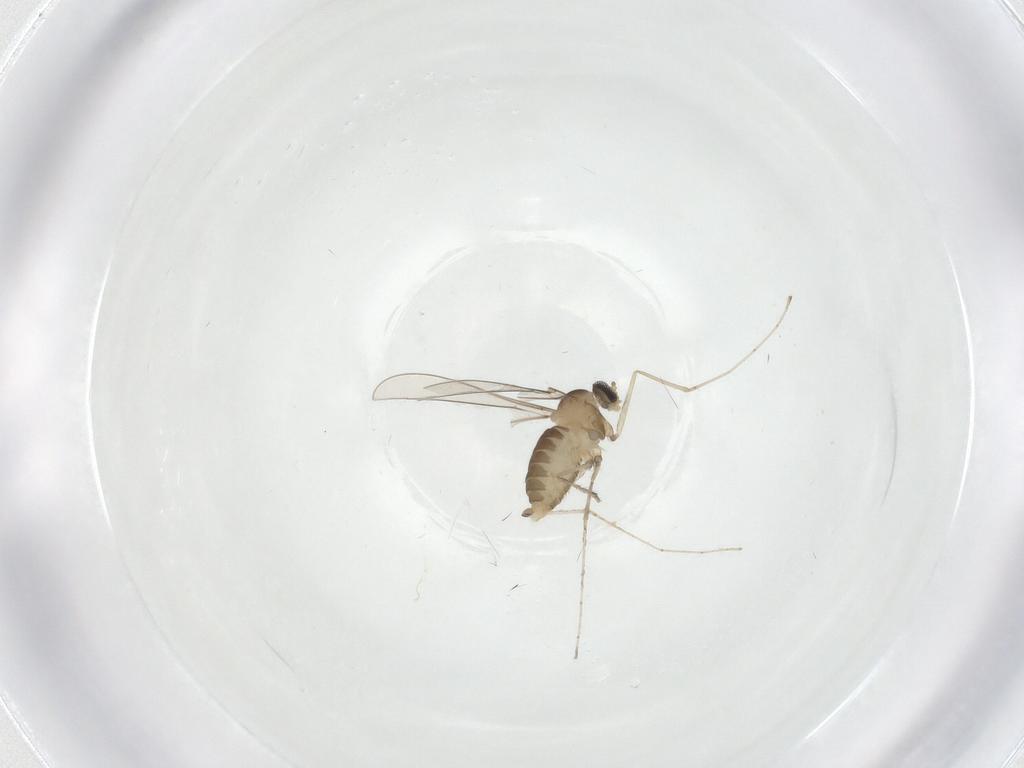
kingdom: Animalia
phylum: Arthropoda
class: Insecta
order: Diptera
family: Cecidomyiidae
